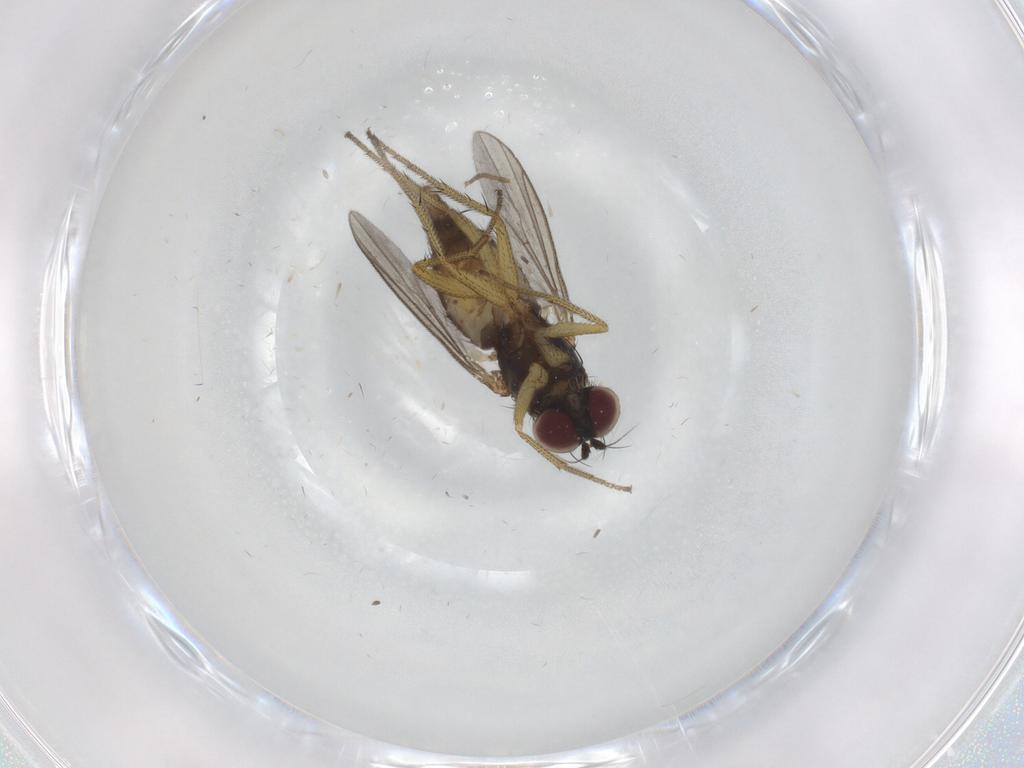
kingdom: Animalia
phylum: Arthropoda
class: Insecta
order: Diptera
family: Dolichopodidae
